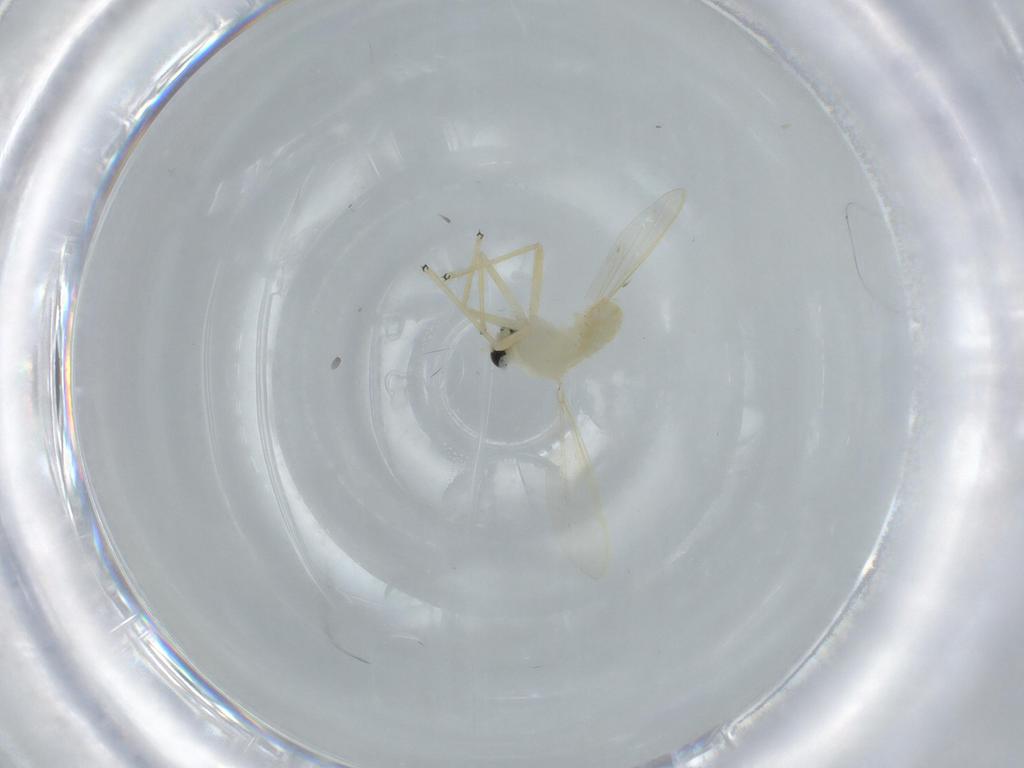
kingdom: Animalia
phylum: Arthropoda
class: Insecta
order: Diptera
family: Chironomidae
